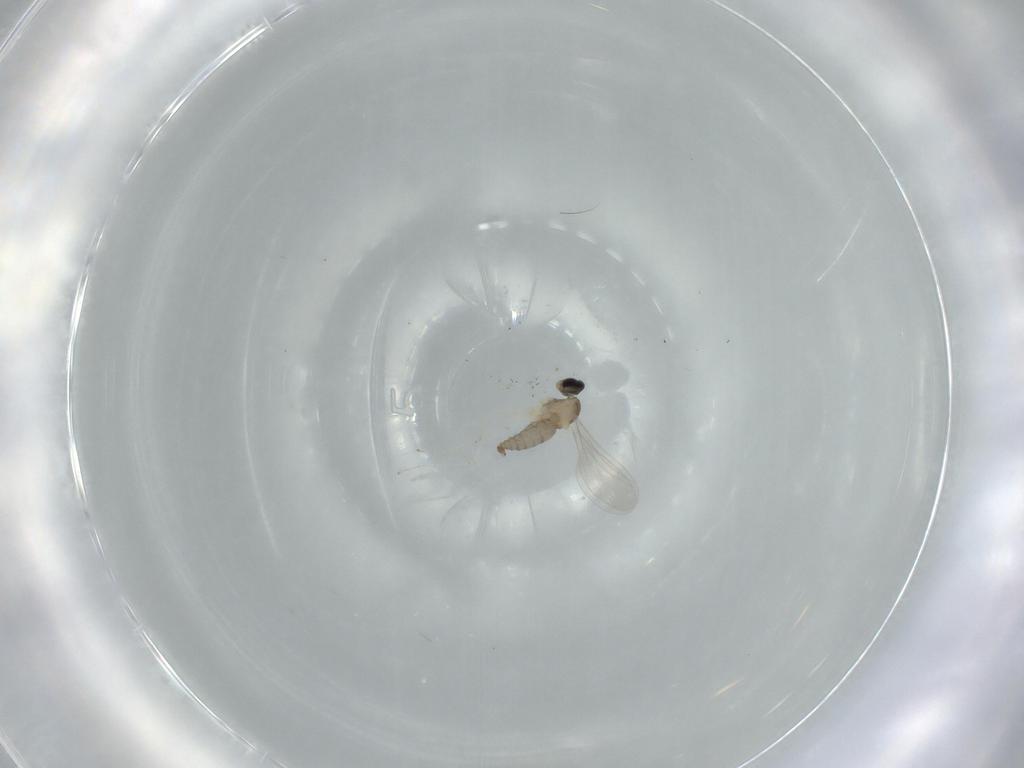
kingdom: Animalia
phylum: Arthropoda
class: Insecta
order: Diptera
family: Cecidomyiidae
